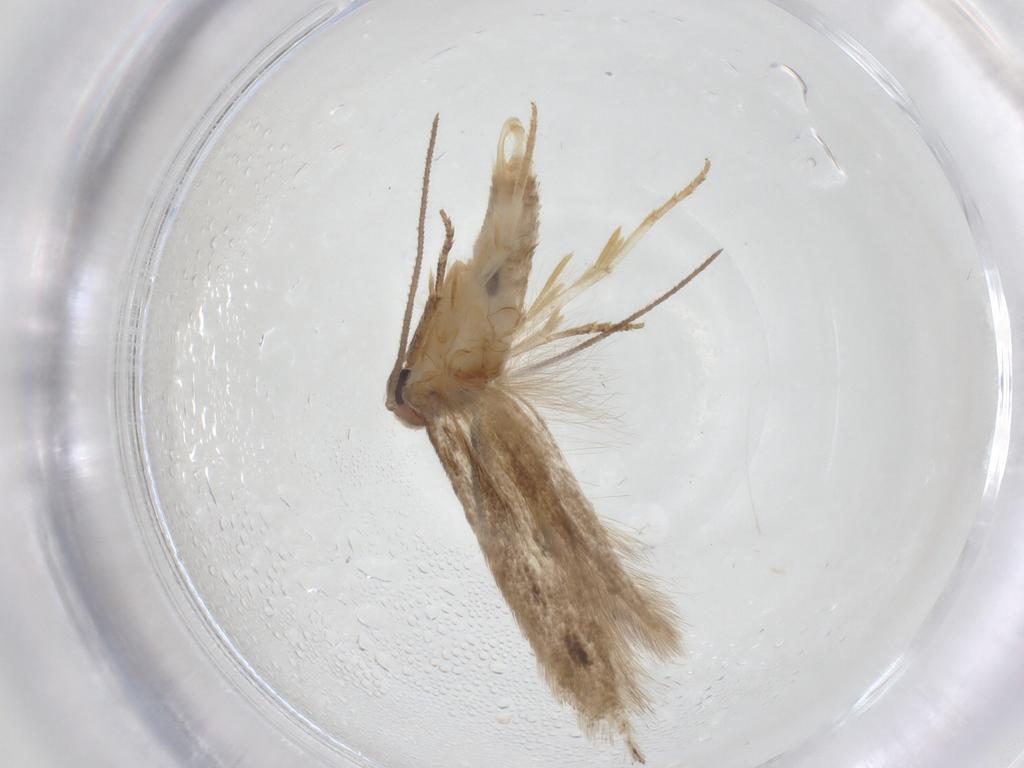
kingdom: Animalia
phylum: Arthropoda
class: Insecta
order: Lepidoptera
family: Elachistidae
